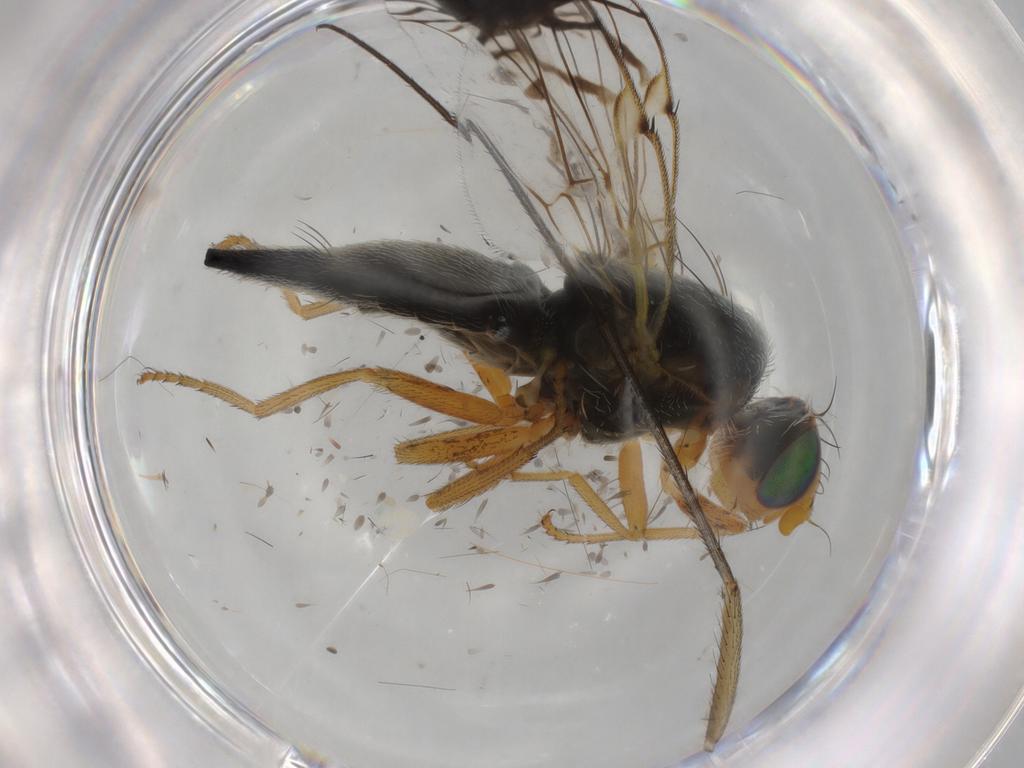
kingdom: Animalia
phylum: Arthropoda
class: Insecta
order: Diptera
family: Tephritidae
